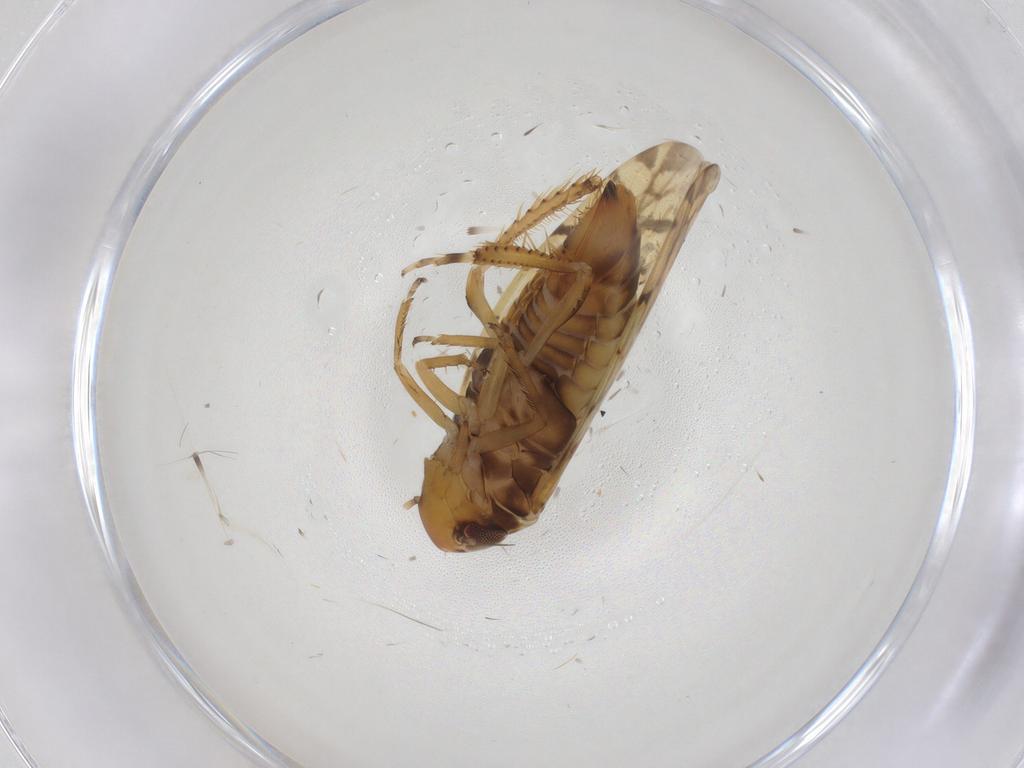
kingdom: Animalia
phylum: Arthropoda
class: Insecta
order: Hemiptera
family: Cicadellidae
